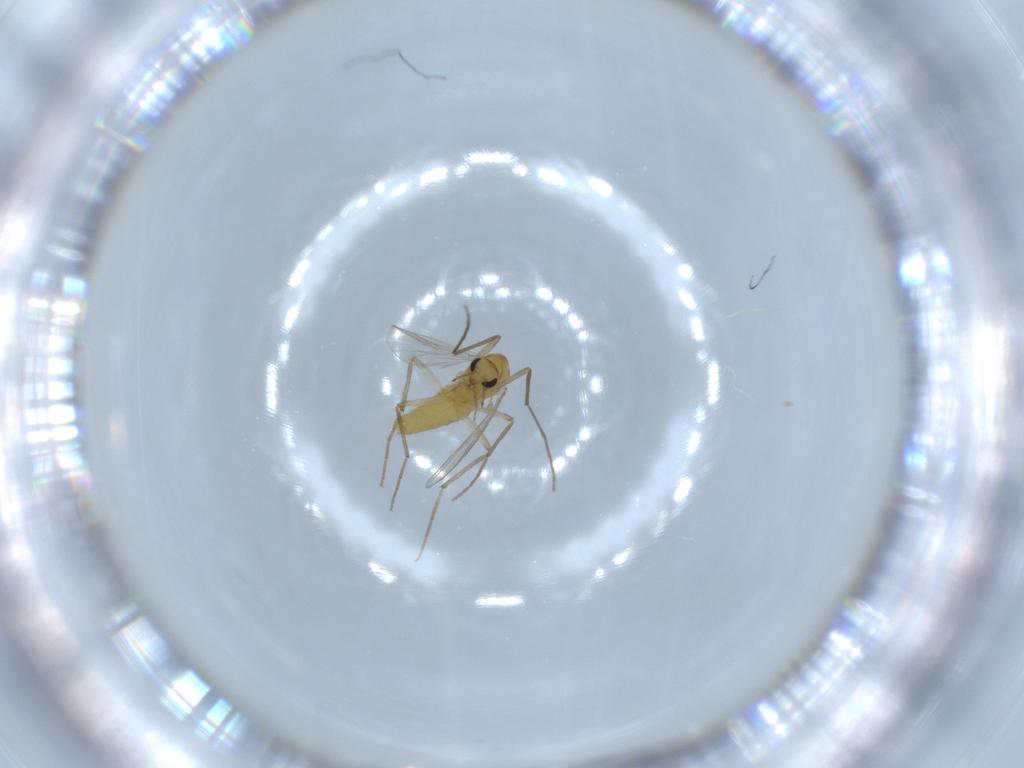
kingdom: Animalia
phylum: Arthropoda
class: Insecta
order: Diptera
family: Chironomidae
